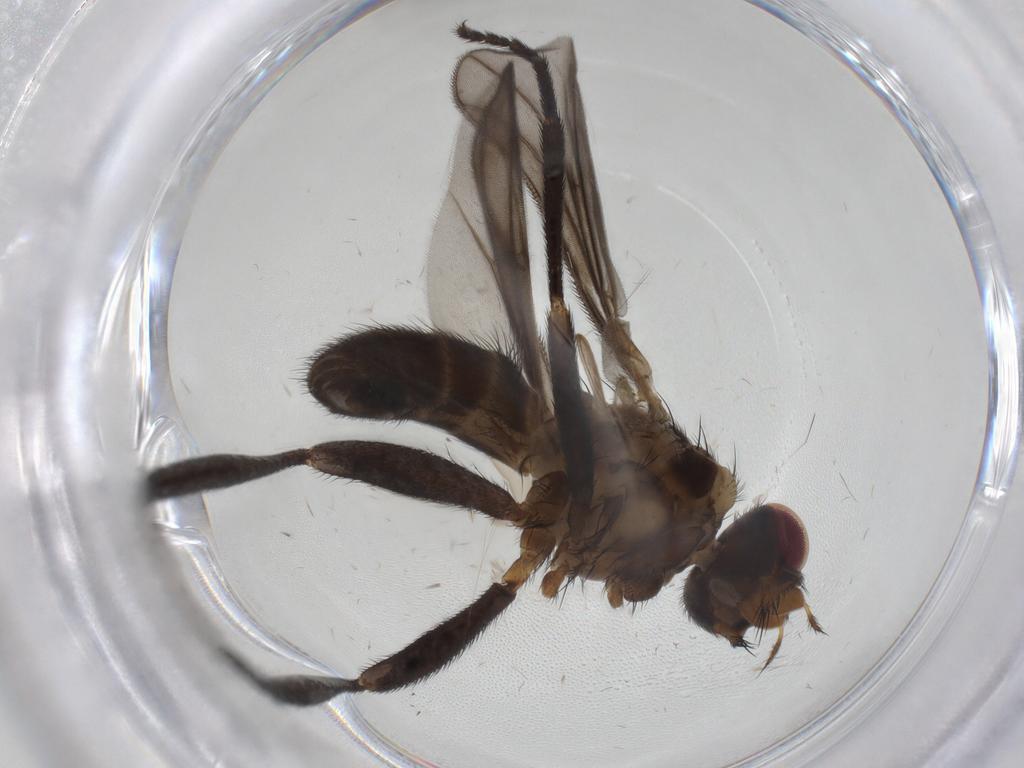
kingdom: Animalia
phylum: Arthropoda
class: Insecta
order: Diptera
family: Calliphoridae
